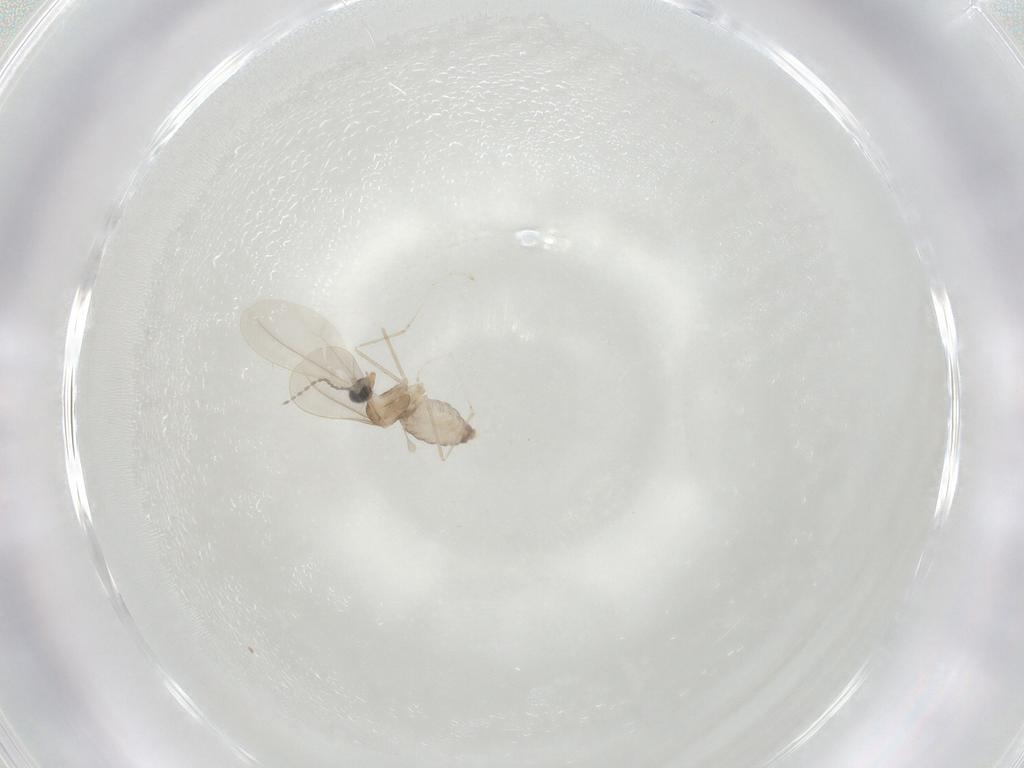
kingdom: Animalia
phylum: Arthropoda
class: Insecta
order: Diptera
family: Cecidomyiidae
